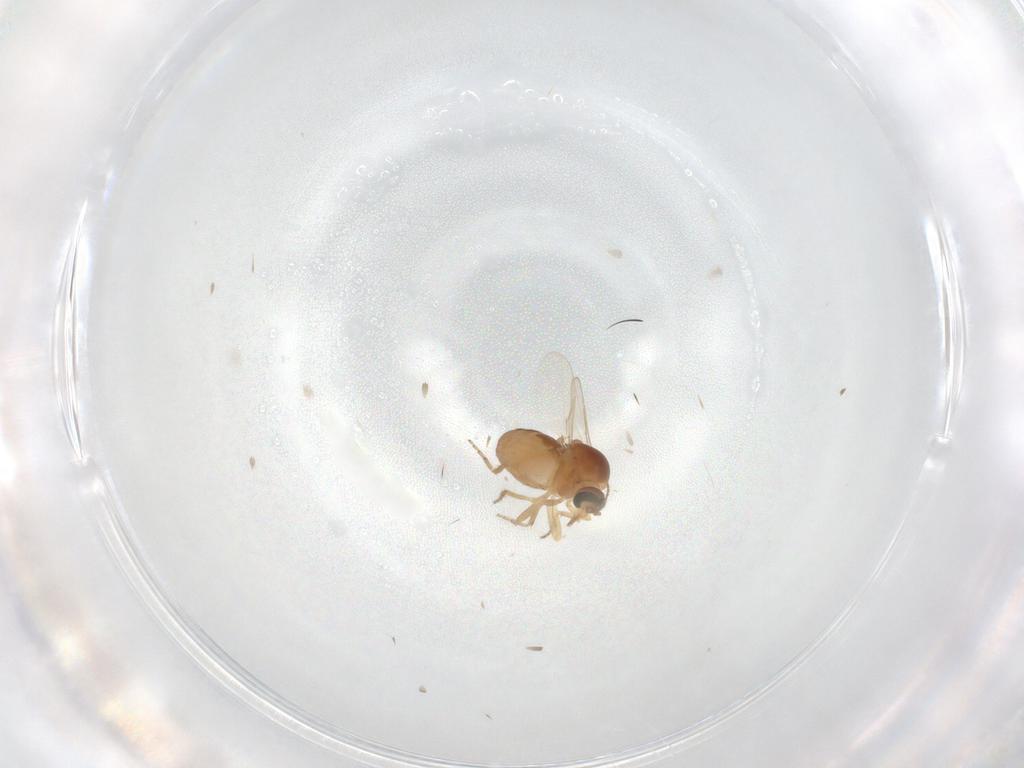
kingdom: Animalia
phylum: Arthropoda
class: Insecta
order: Diptera
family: Ceratopogonidae
